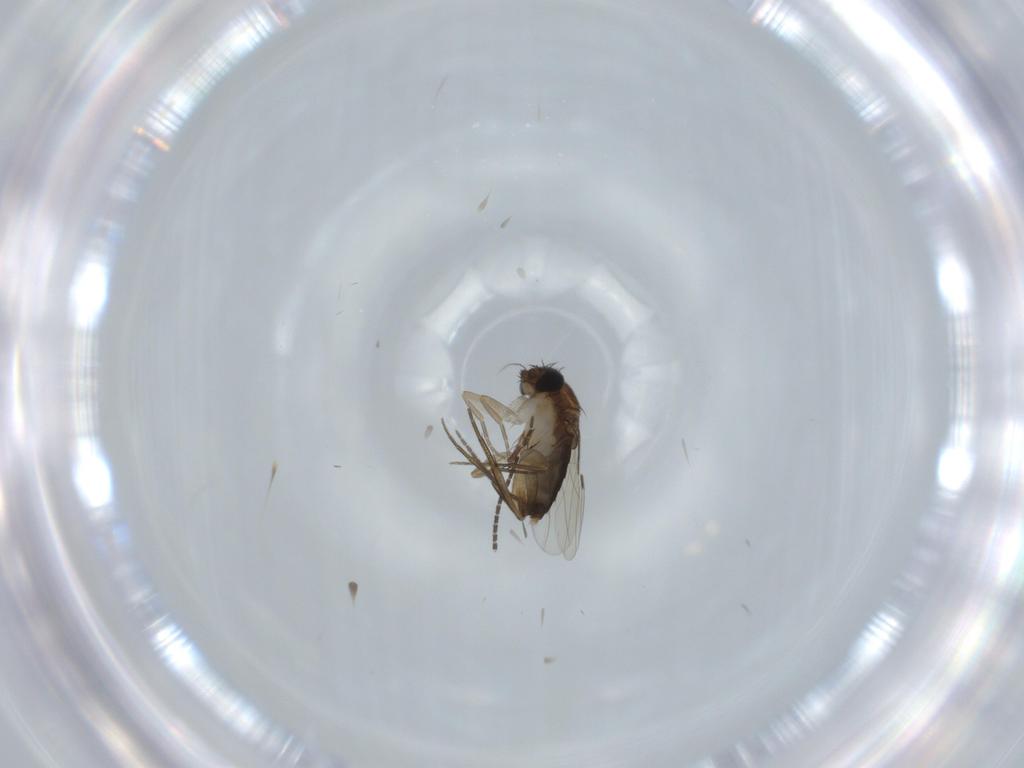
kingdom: Animalia
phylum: Arthropoda
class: Insecta
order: Diptera
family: Sciaridae
